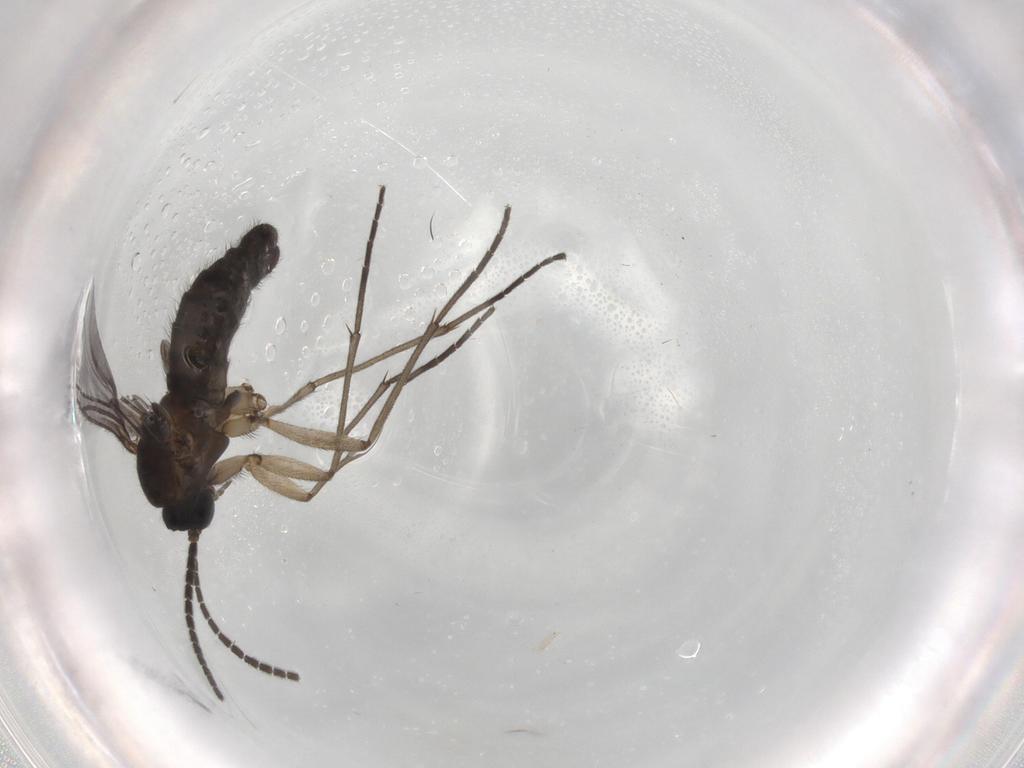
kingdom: Animalia
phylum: Arthropoda
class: Insecta
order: Diptera
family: Sciaridae
